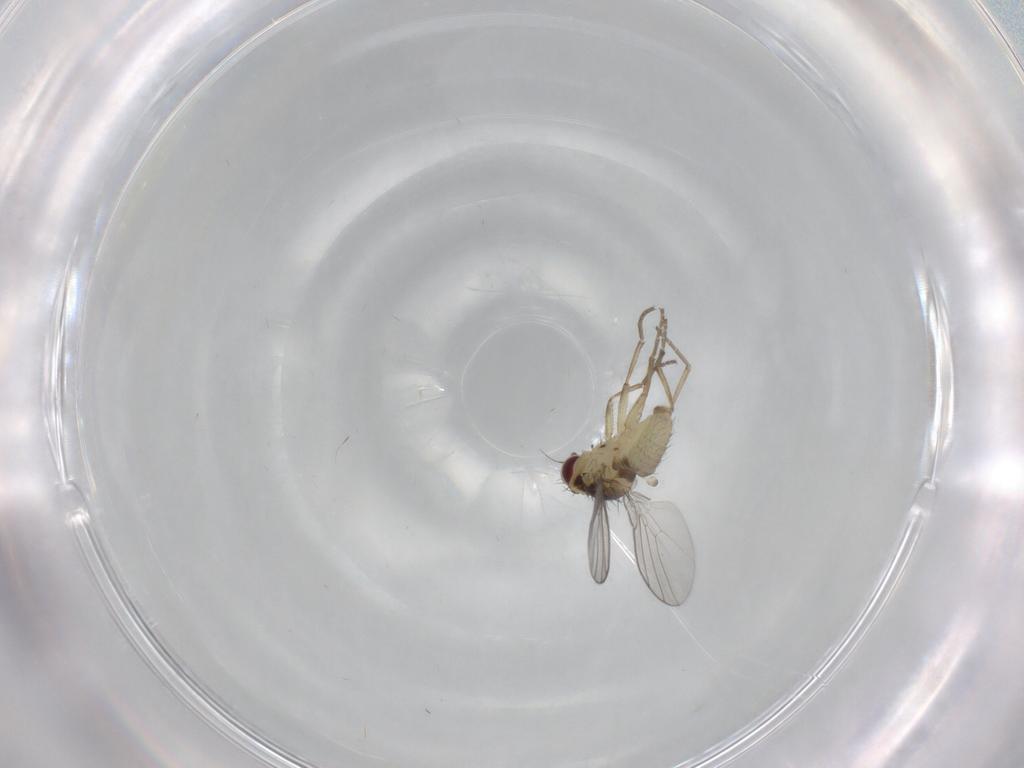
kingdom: Animalia
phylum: Arthropoda
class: Insecta
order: Diptera
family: Agromyzidae
